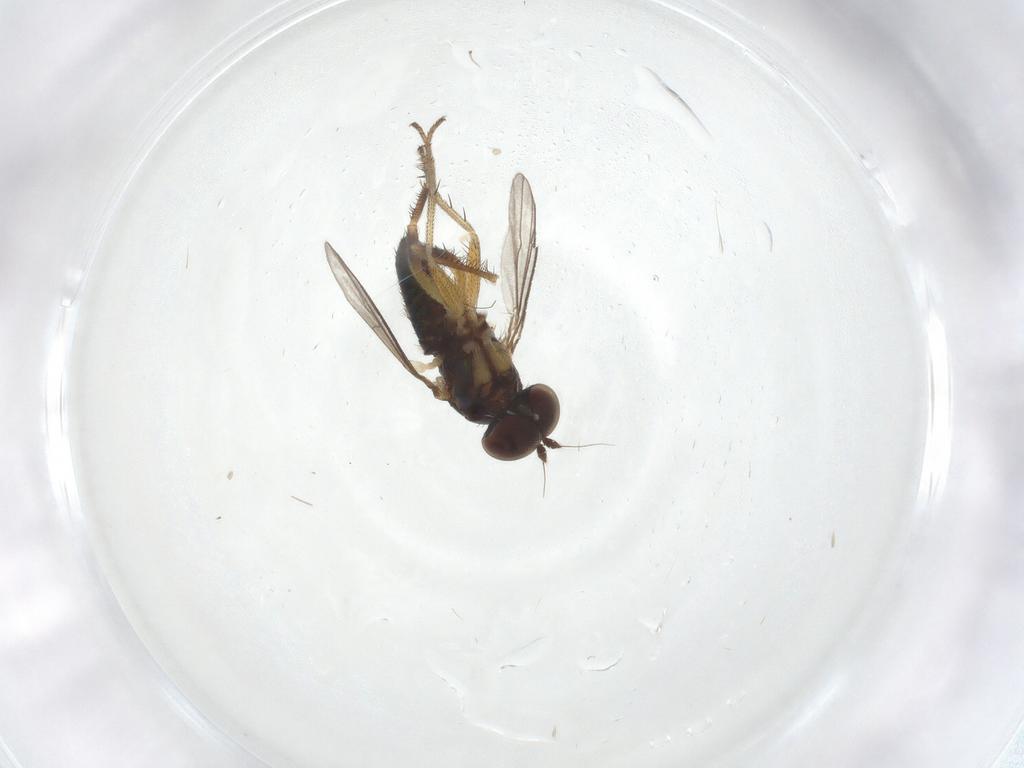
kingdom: Animalia
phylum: Arthropoda
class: Insecta
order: Diptera
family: Dolichopodidae
